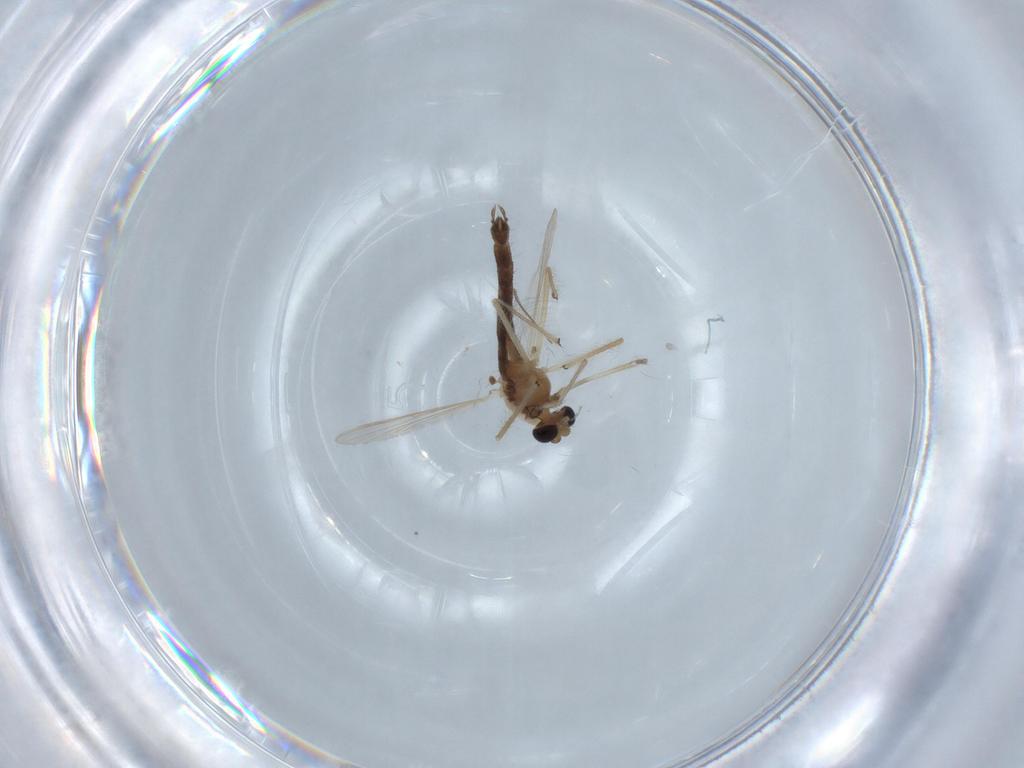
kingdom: Animalia
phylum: Arthropoda
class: Insecta
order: Diptera
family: Chironomidae
